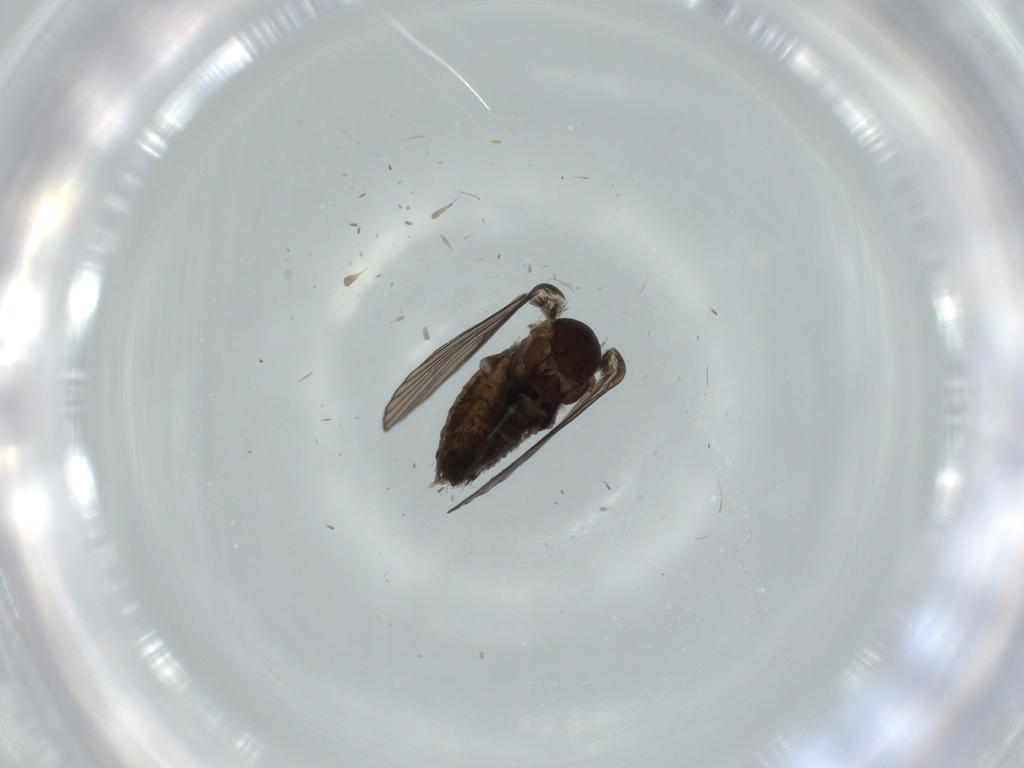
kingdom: Animalia
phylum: Arthropoda
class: Insecta
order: Diptera
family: Psychodidae
